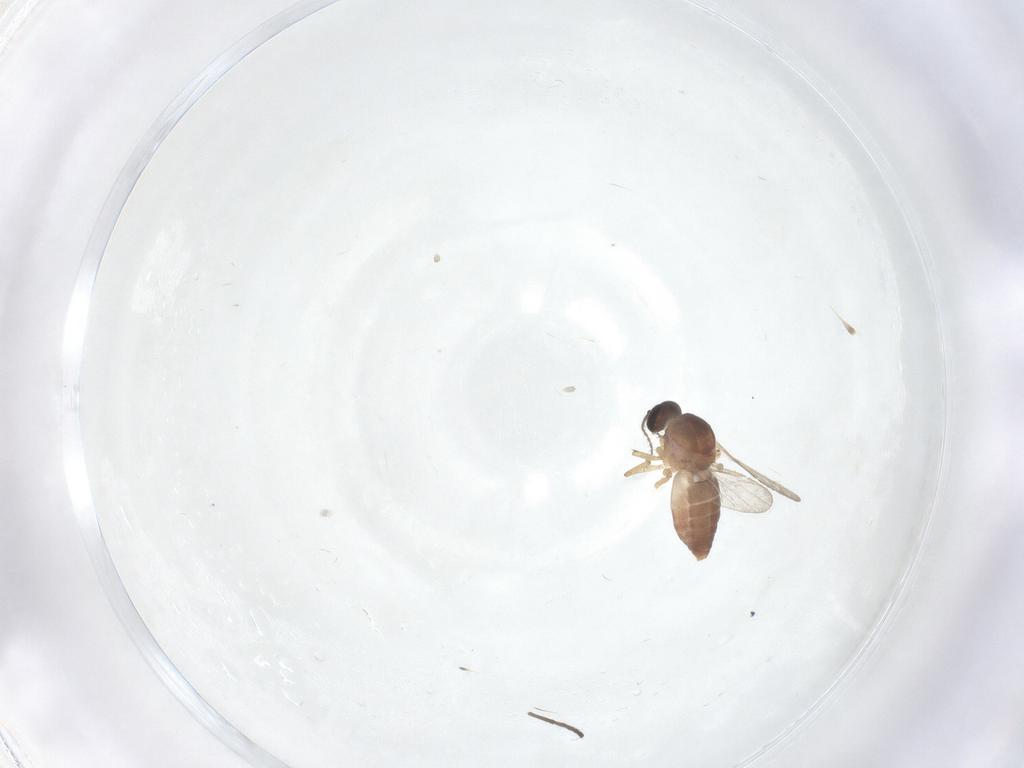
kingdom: Animalia
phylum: Arthropoda
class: Insecta
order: Diptera
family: Ceratopogonidae
